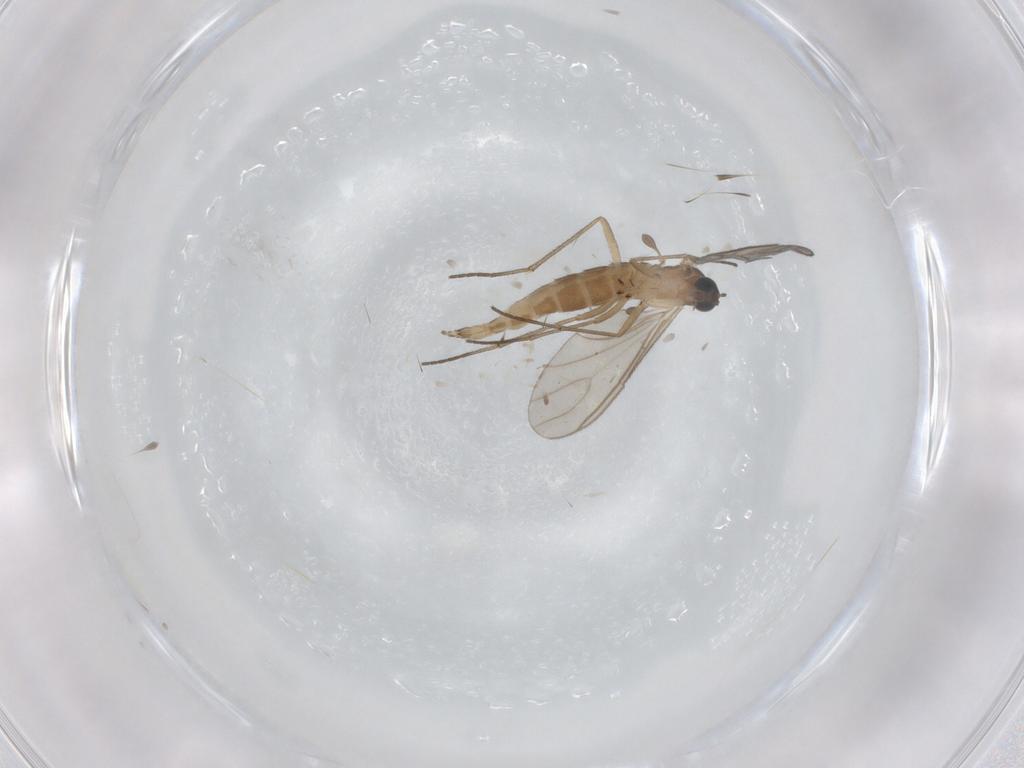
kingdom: Animalia
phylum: Arthropoda
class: Insecta
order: Diptera
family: Sciaridae
